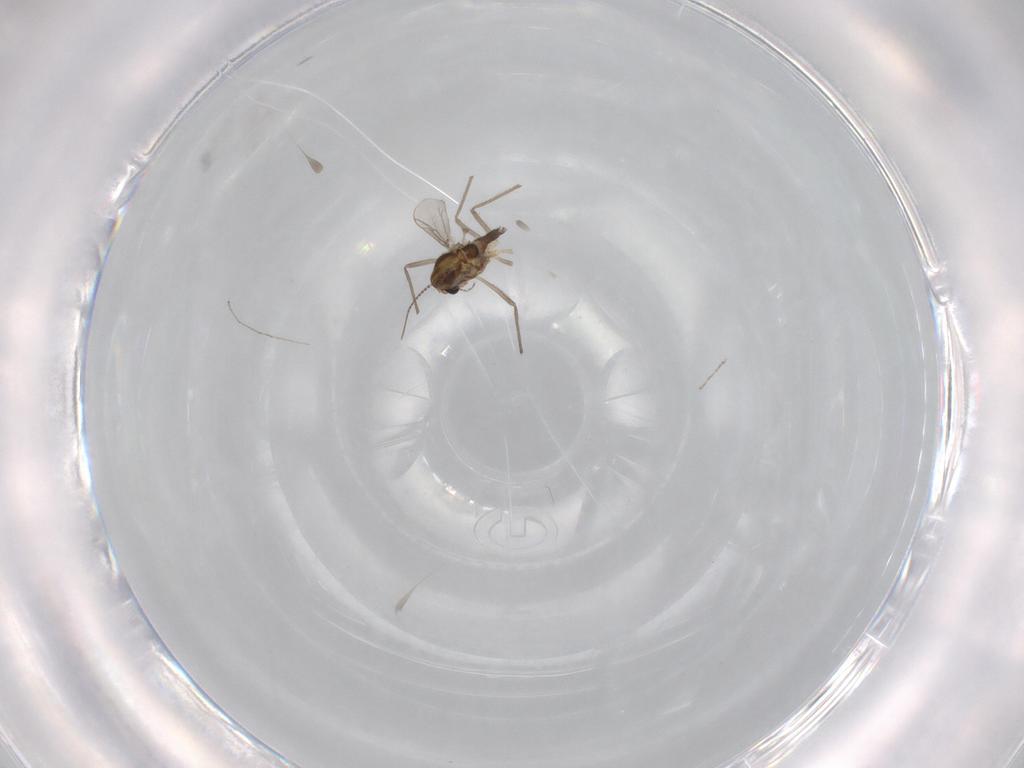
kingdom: Animalia
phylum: Arthropoda
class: Insecta
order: Diptera
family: Chironomidae
